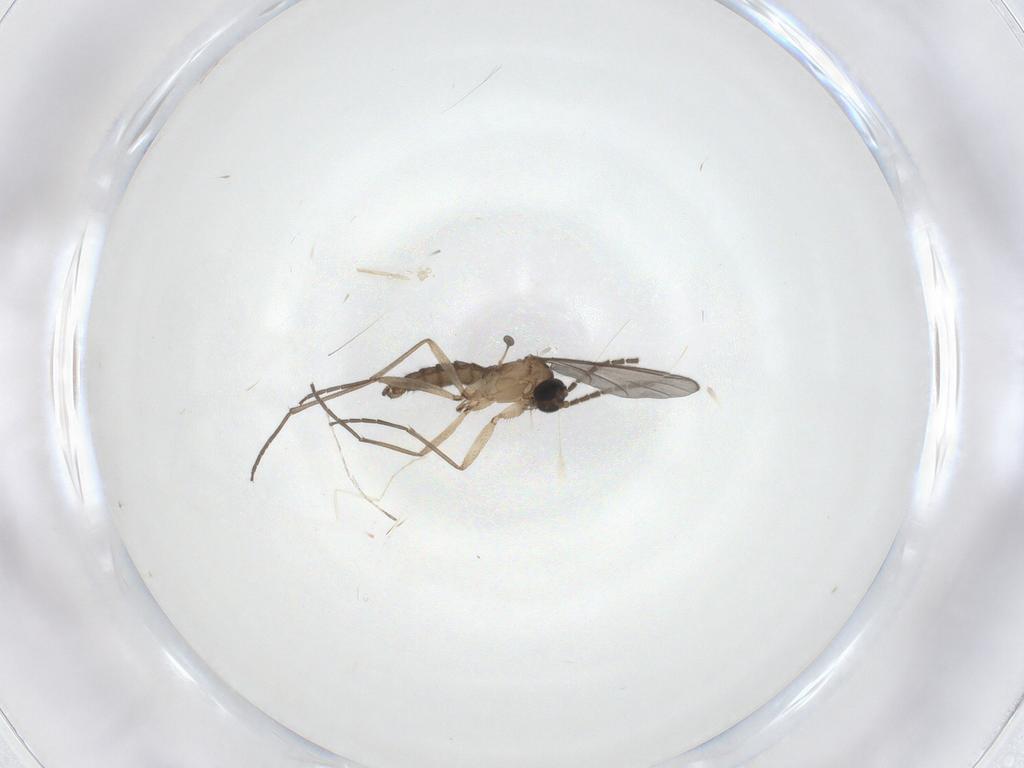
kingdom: Animalia
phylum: Arthropoda
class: Insecta
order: Diptera
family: Sciaridae
